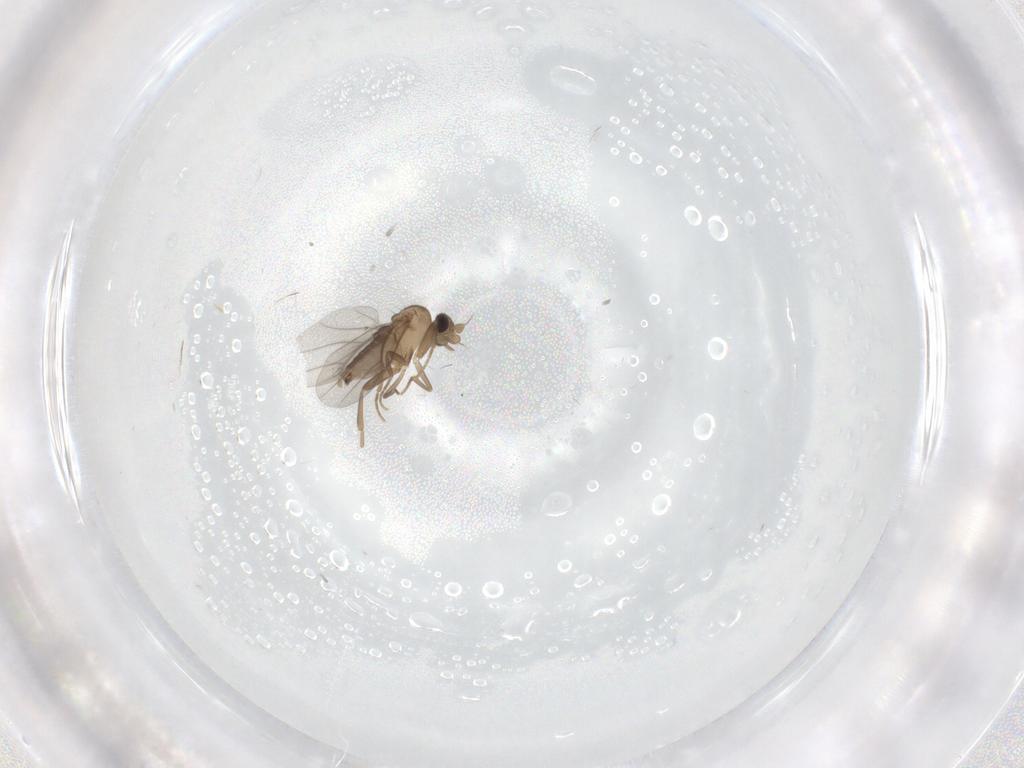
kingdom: Animalia
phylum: Arthropoda
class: Insecta
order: Diptera
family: Psychodidae
